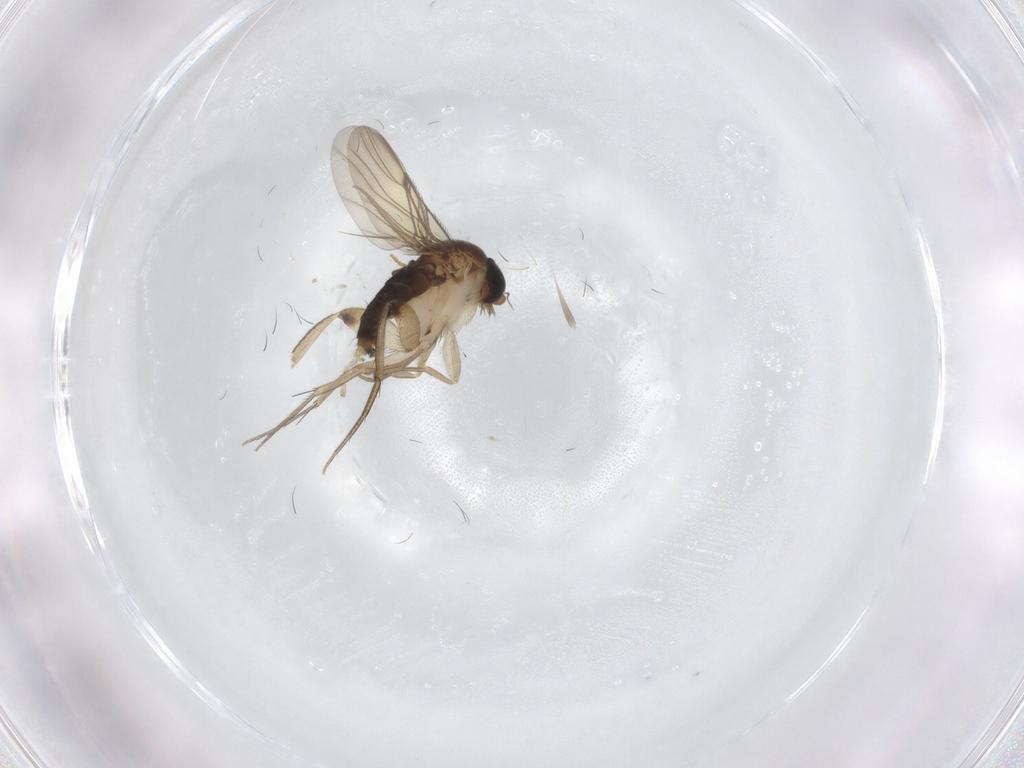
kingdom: Animalia
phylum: Arthropoda
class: Insecta
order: Diptera
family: Phoridae
